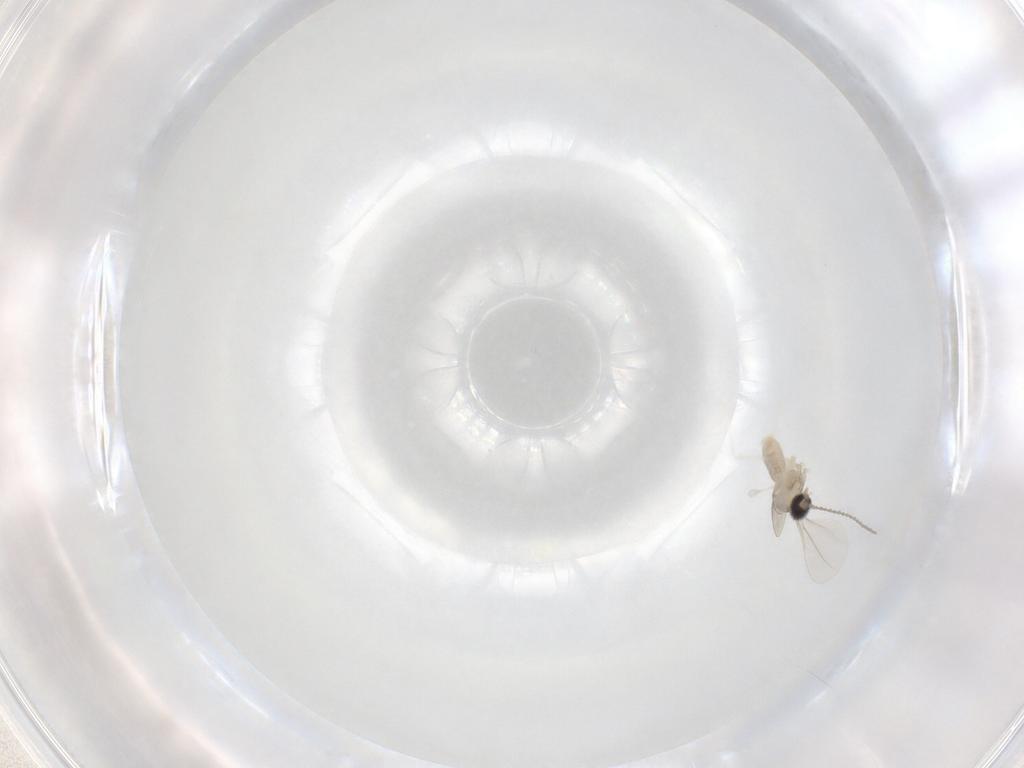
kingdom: Animalia
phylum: Arthropoda
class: Insecta
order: Diptera
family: Cecidomyiidae
